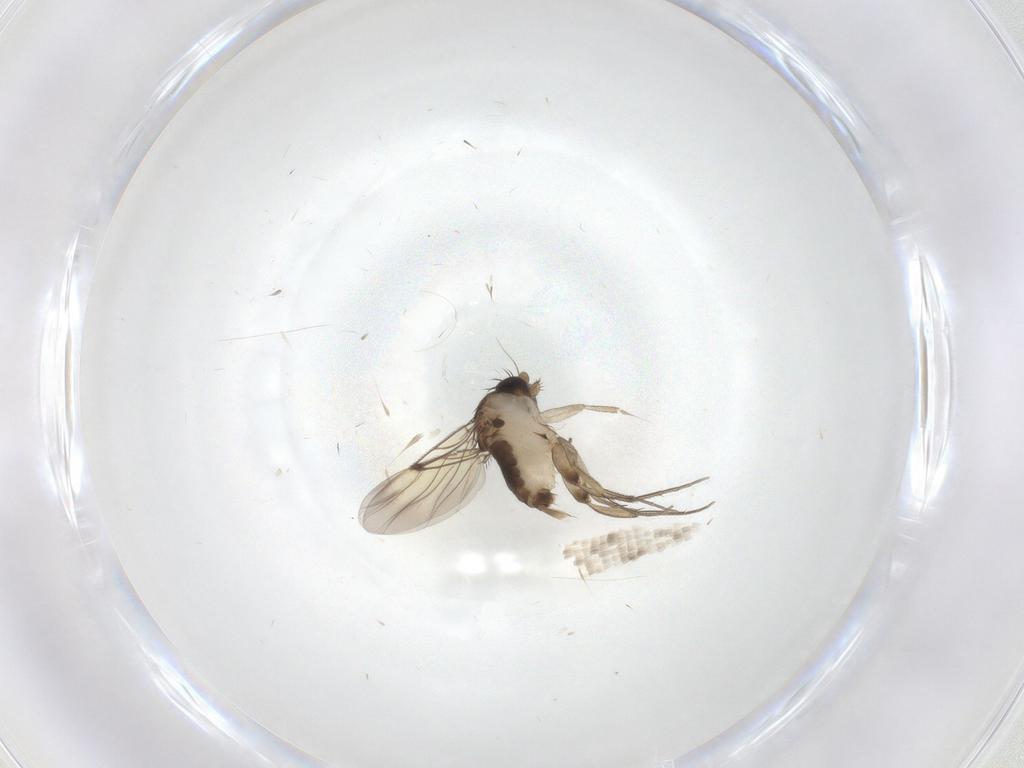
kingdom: Animalia
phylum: Arthropoda
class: Insecta
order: Diptera
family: Phoridae
